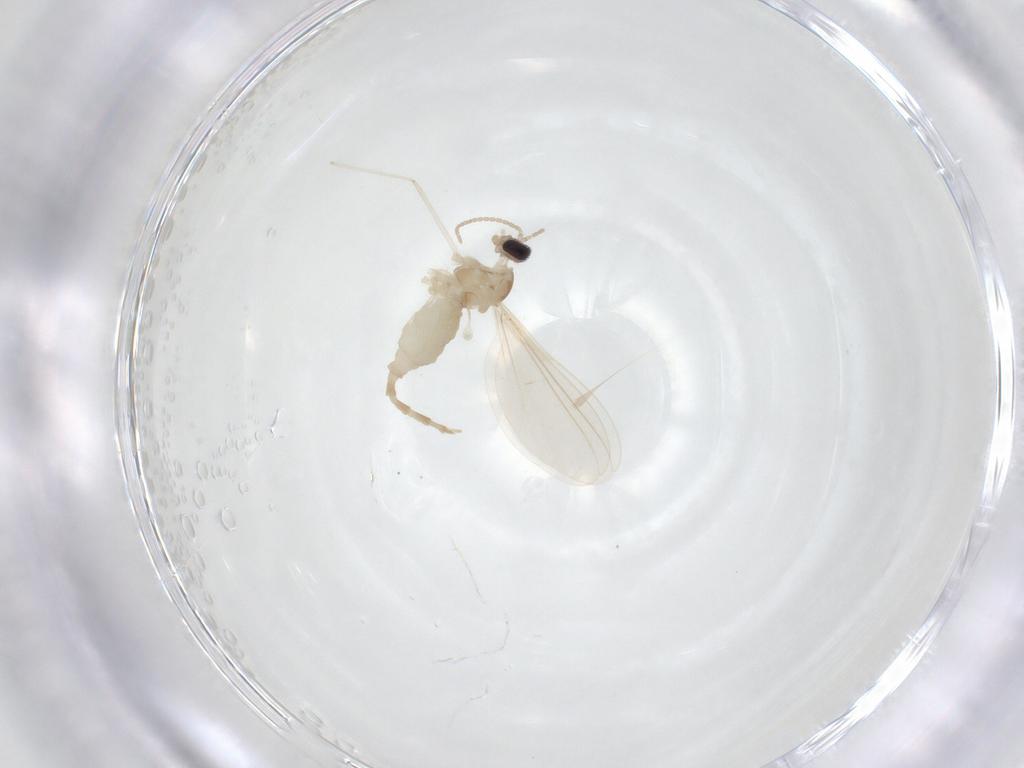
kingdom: Animalia
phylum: Arthropoda
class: Insecta
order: Diptera
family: Cecidomyiidae
